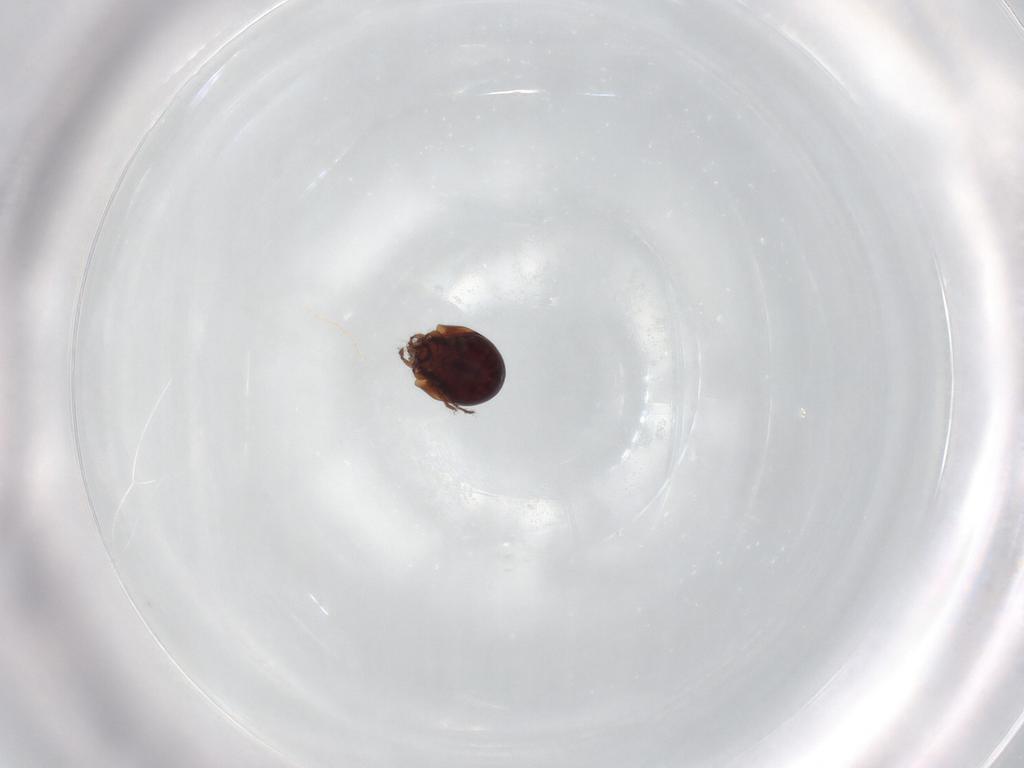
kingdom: Animalia
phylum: Arthropoda
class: Arachnida
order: Sarcoptiformes
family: Humerobatidae
